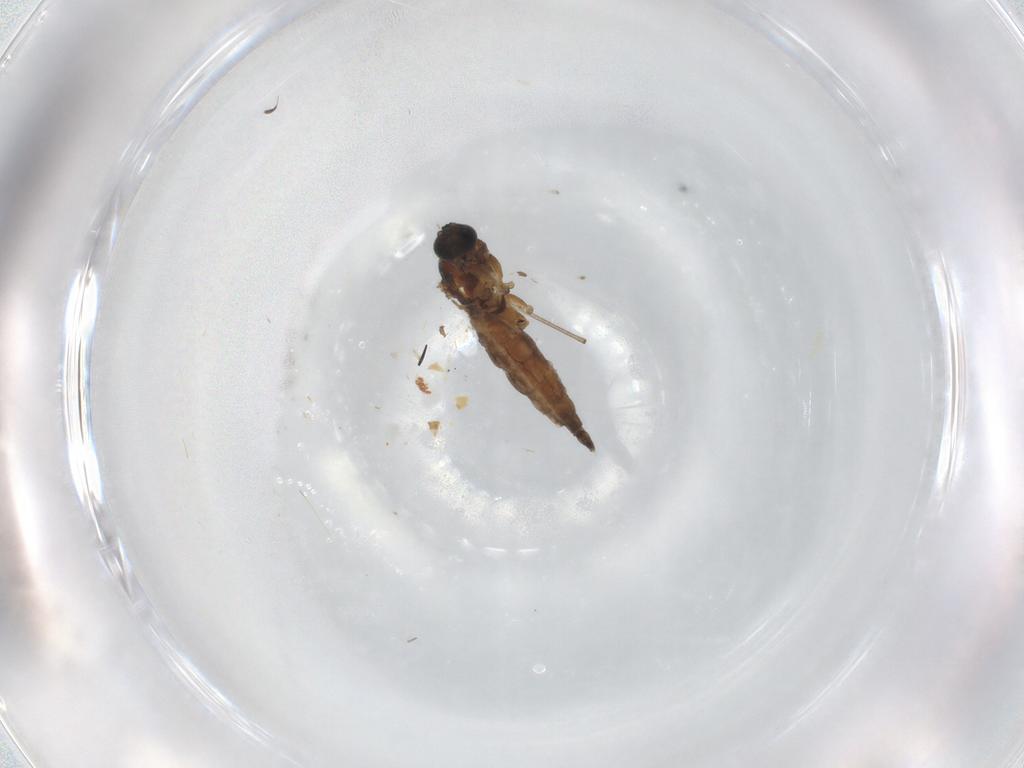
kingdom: Animalia
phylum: Arthropoda
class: Insecta
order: Diptera
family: Sciaridae
